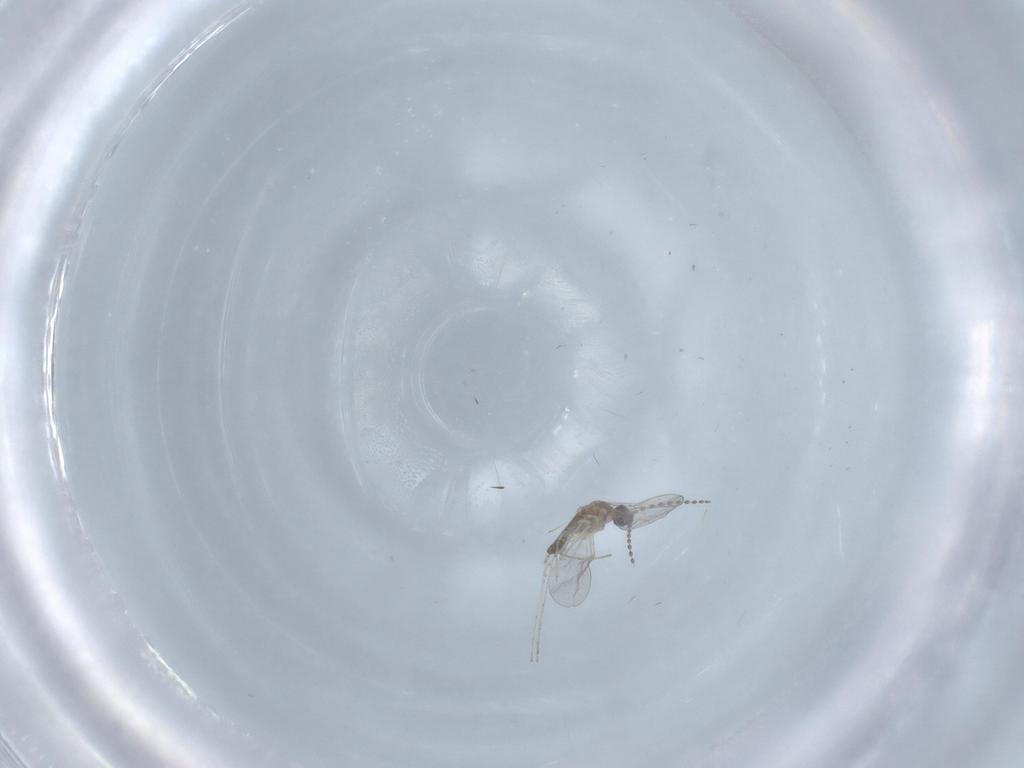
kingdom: Animalia
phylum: Arthropoda
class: Insecta
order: Diptera
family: Cecidomyiidae
